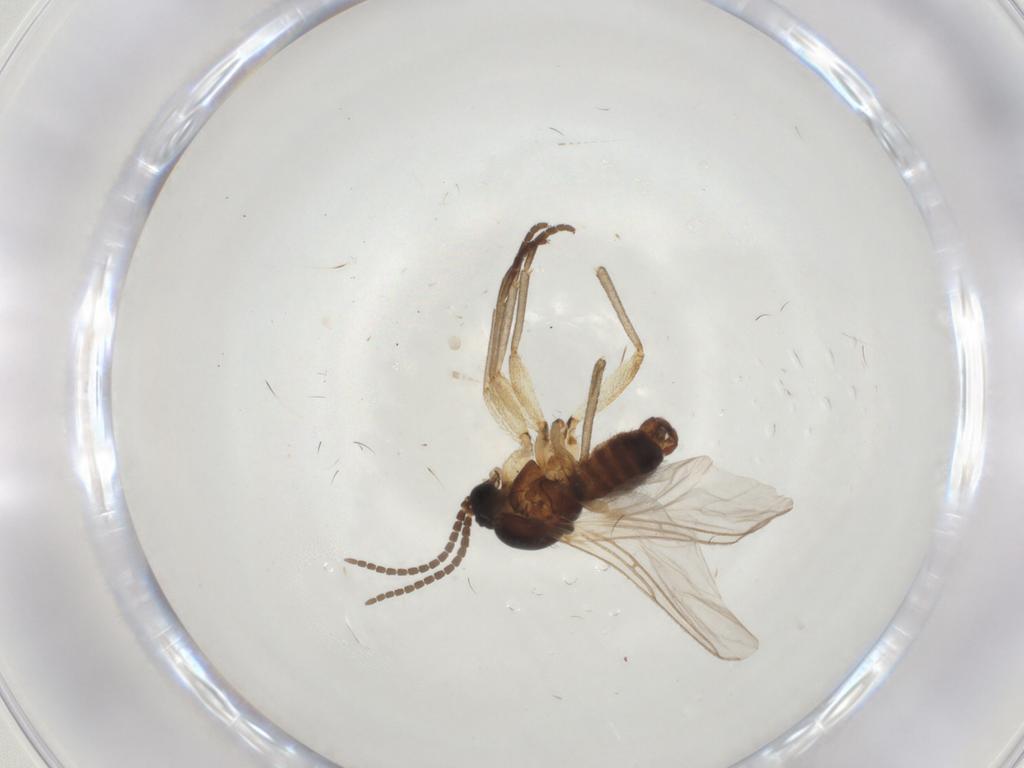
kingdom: Animalia
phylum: Arthropoda
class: Insecta
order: Diptera
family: Sciaridae
